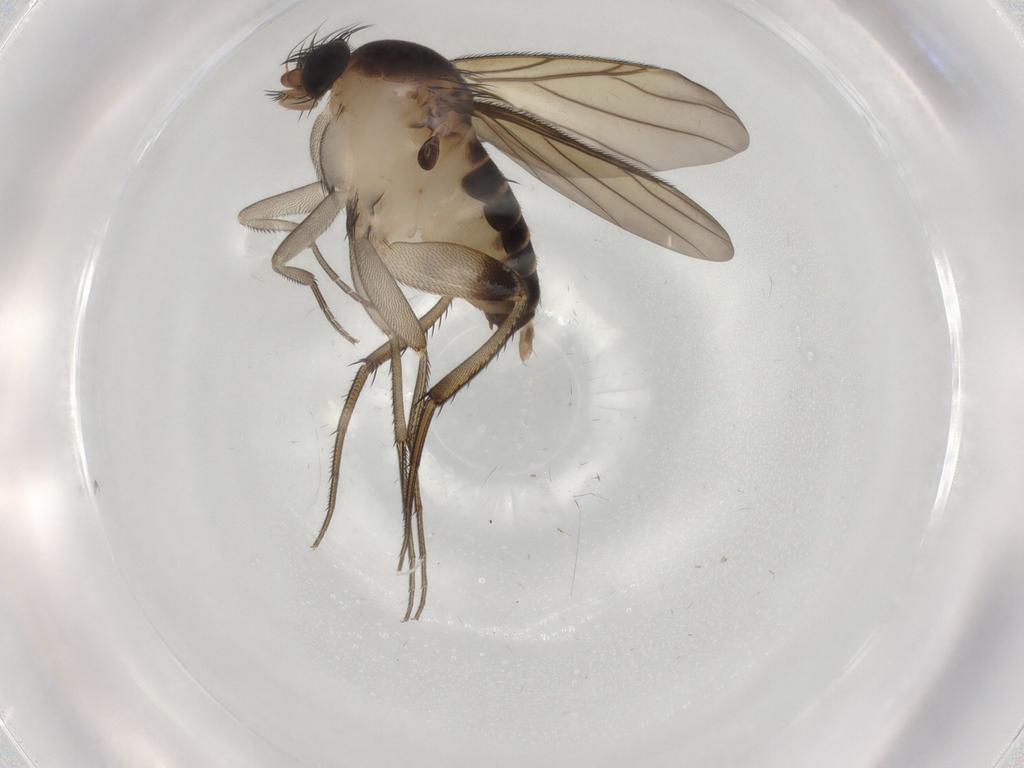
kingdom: Animalia
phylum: Arthropoda
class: Insecta
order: Diptera
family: Phoridae
